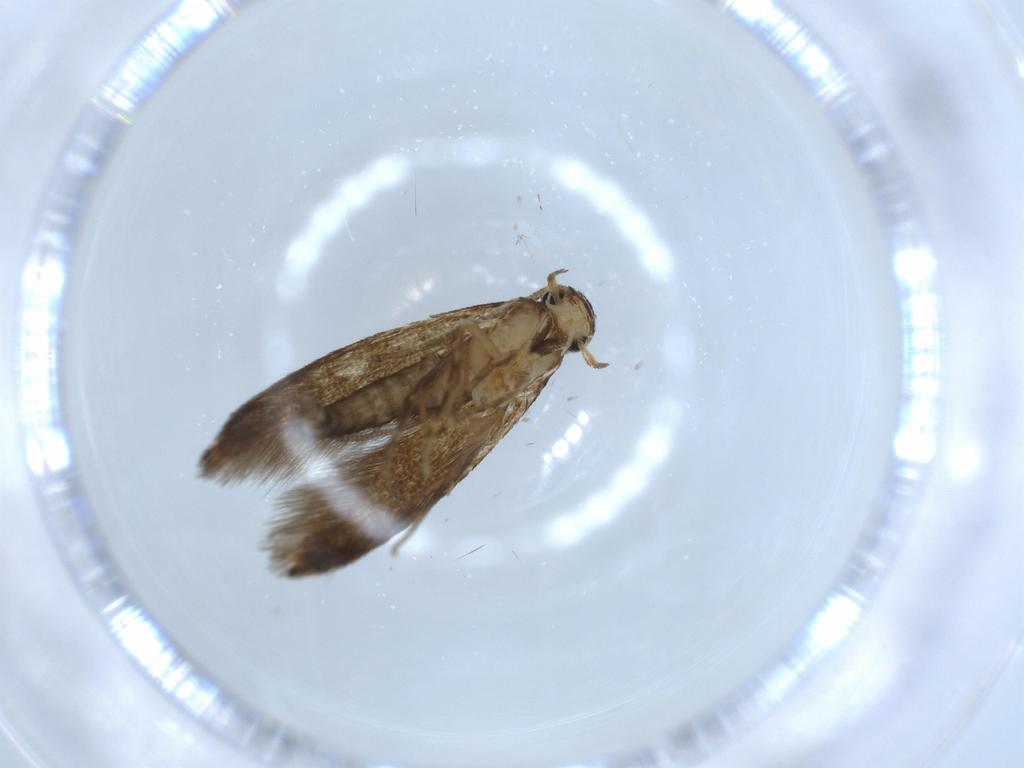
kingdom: Animalia
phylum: Arthropoda
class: Insecta
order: Lepidoptera
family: Tineidae
